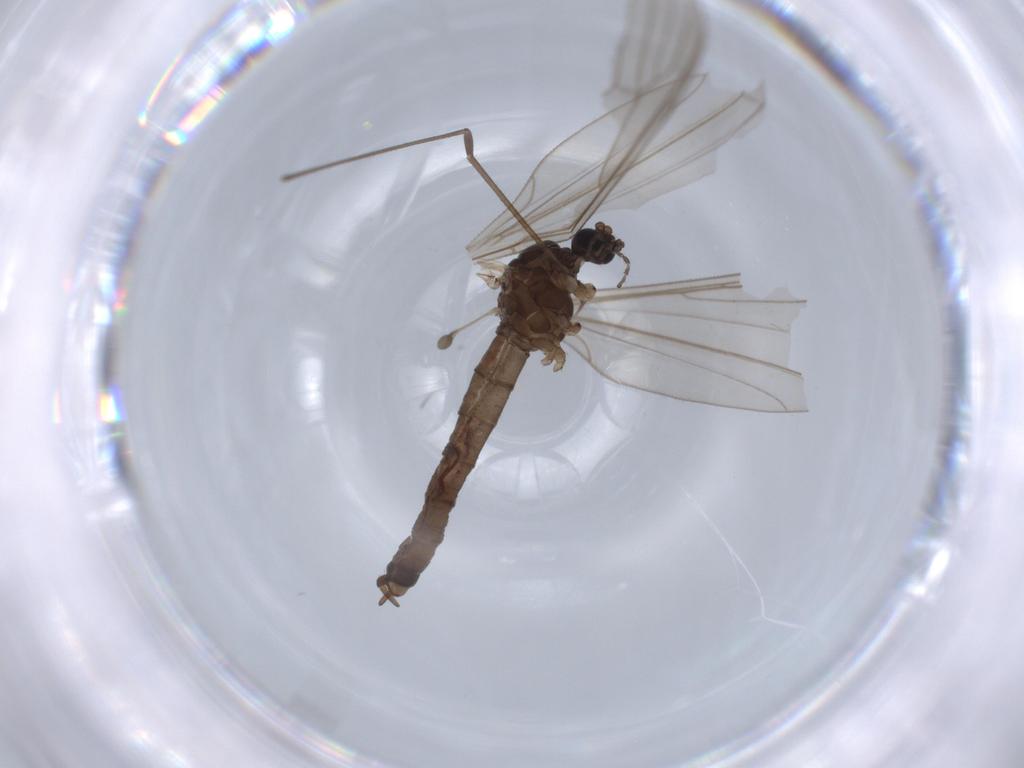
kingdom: Animalia
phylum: Arthropoda
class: Insecta
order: Diptera
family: Trichoceridae
